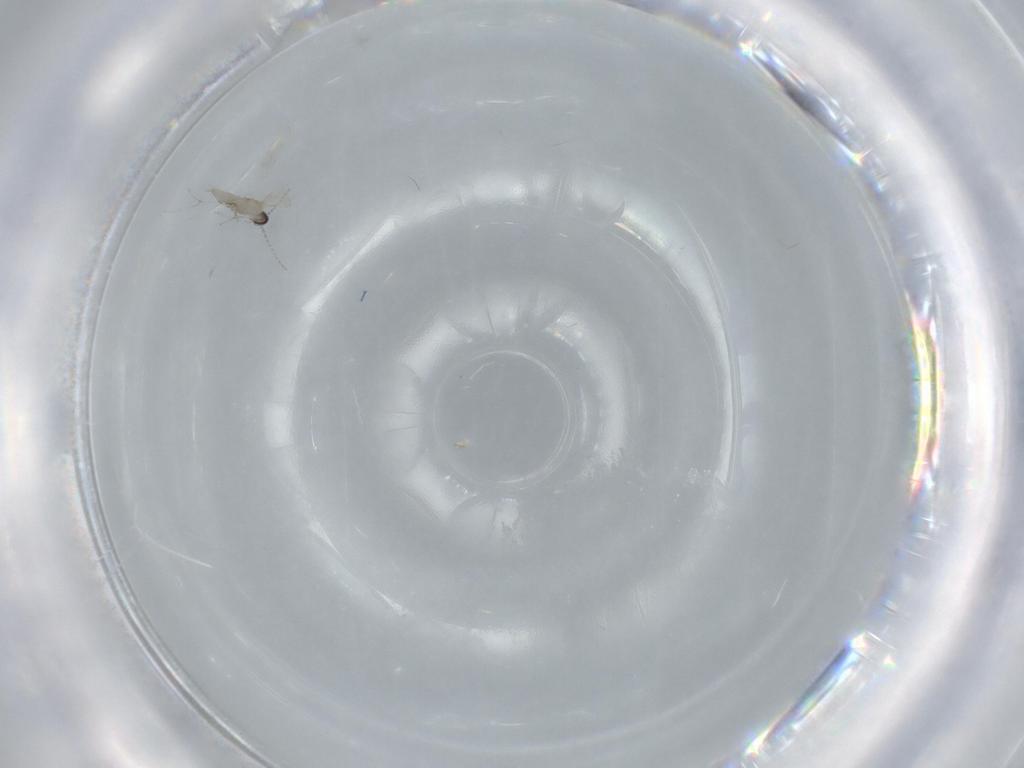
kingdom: Animalia
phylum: Arthropoda
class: Insecta
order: Diptera
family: Cecidomyiidae
